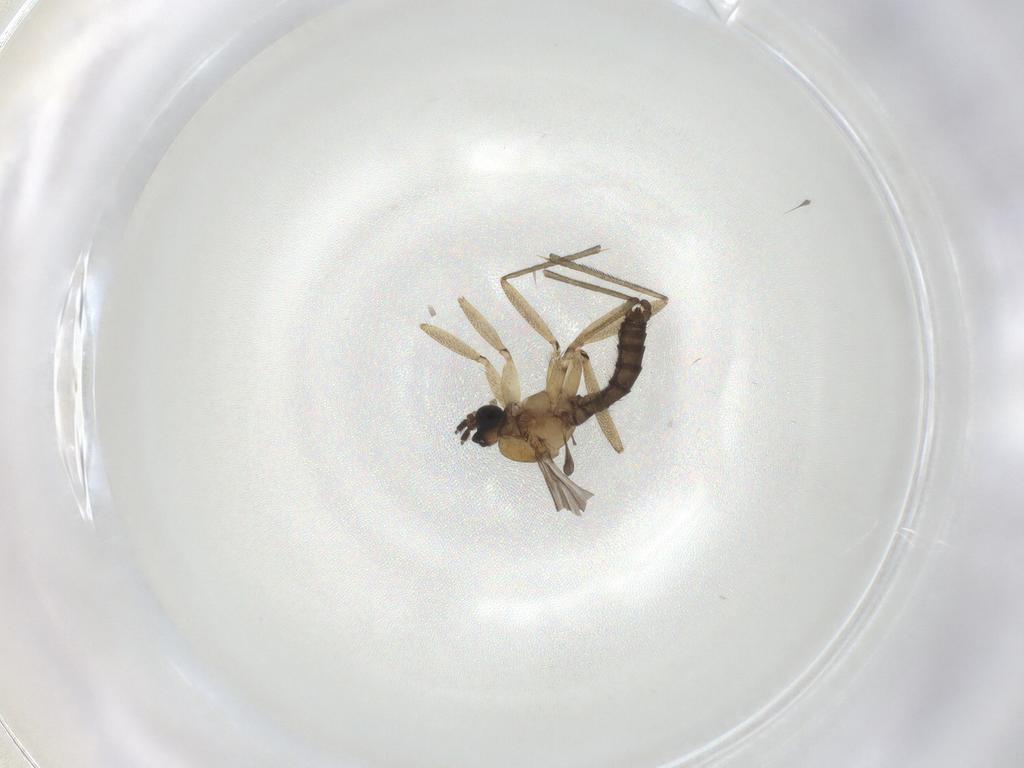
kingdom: Animalia
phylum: Arthropoda
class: Insecta
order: Diptera
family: Sciaridae
